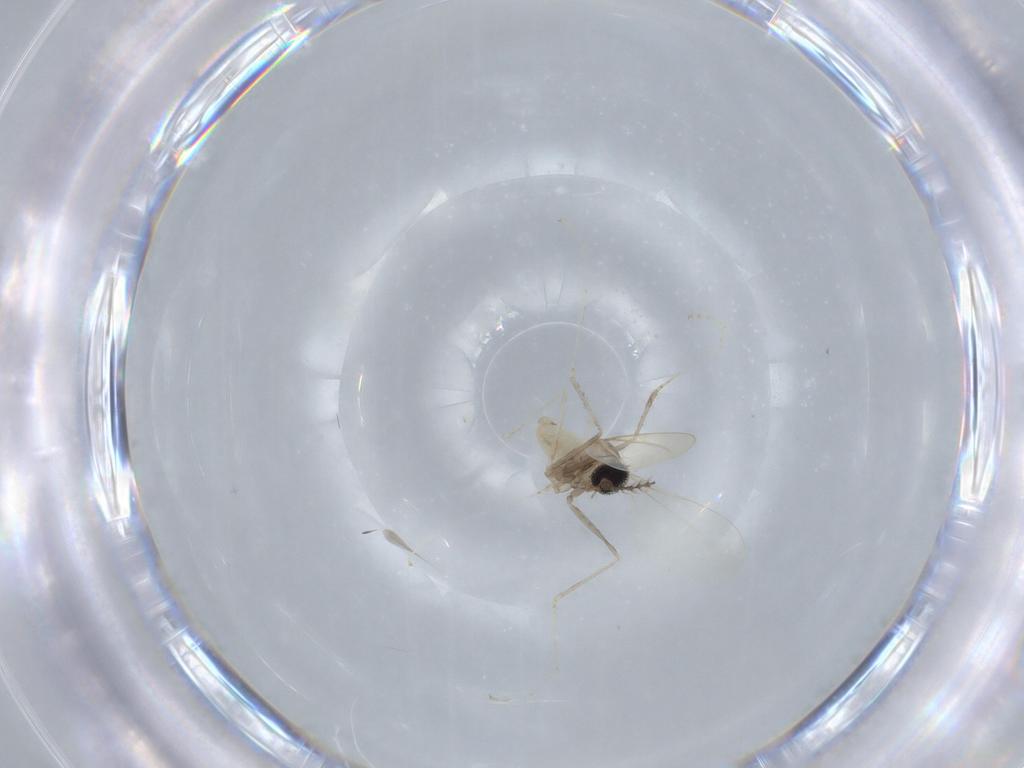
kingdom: Animalia
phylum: Arthropoda
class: Insecta
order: Diptera
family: Cecidomyiidae
